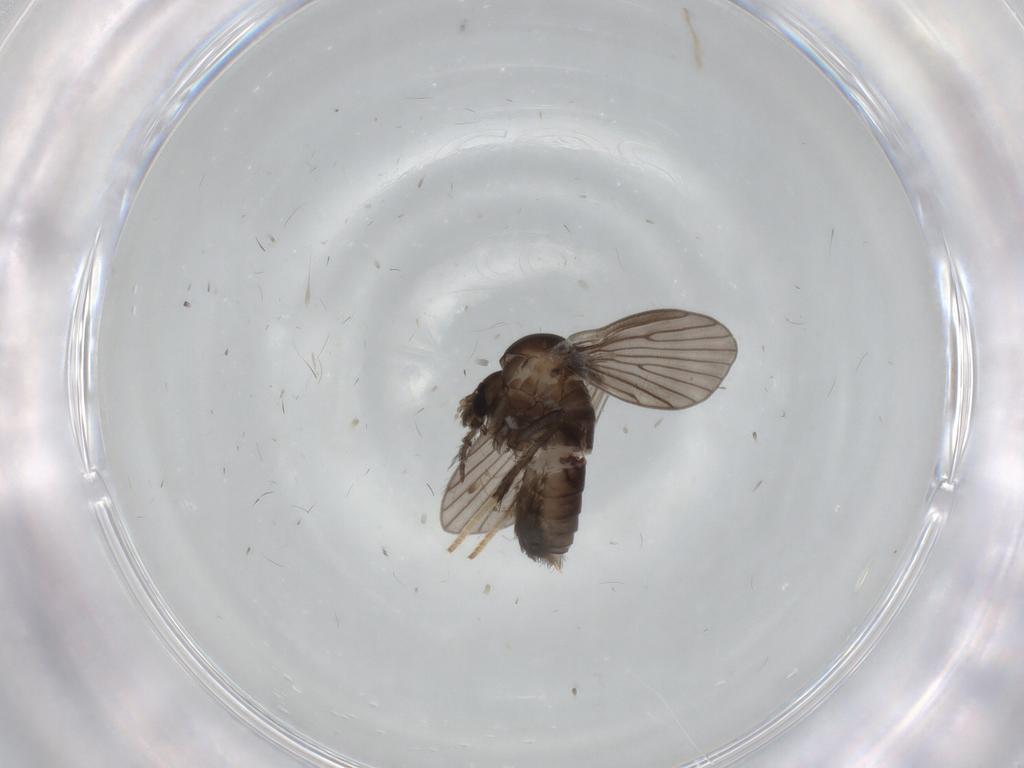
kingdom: Animalia
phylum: Arthropoda
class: Insecta
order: Diptera
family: Psychodidae
